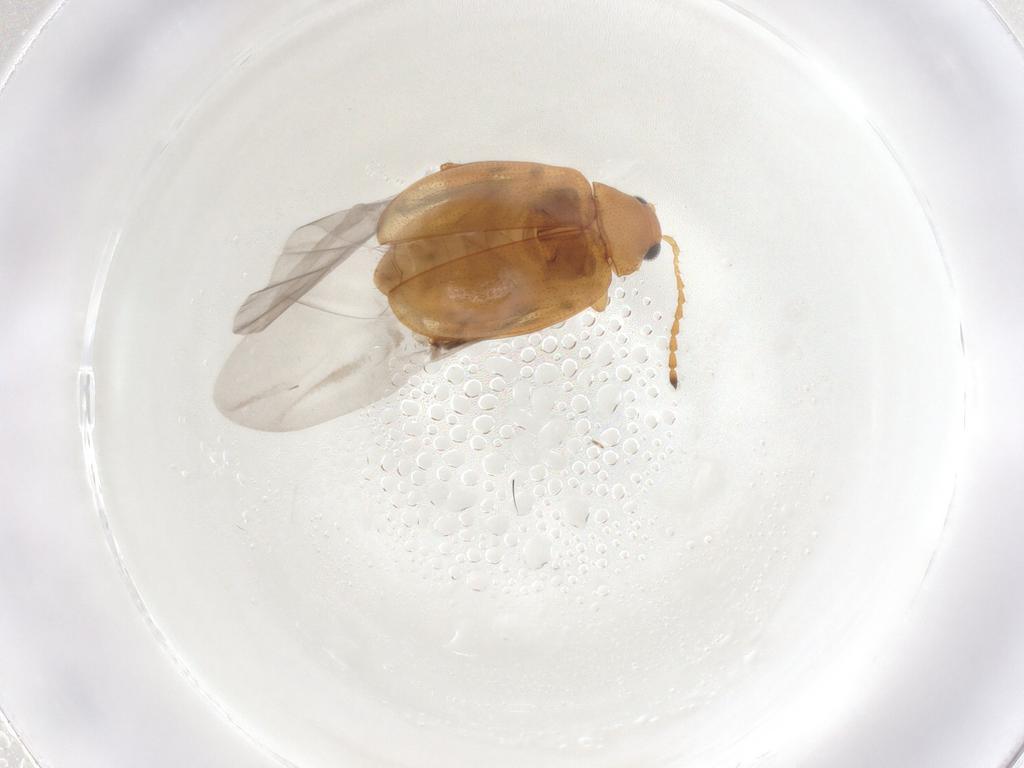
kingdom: Animalia
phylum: Arthropoda
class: Insecta
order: Coleoptera
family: Chrysomelidae
